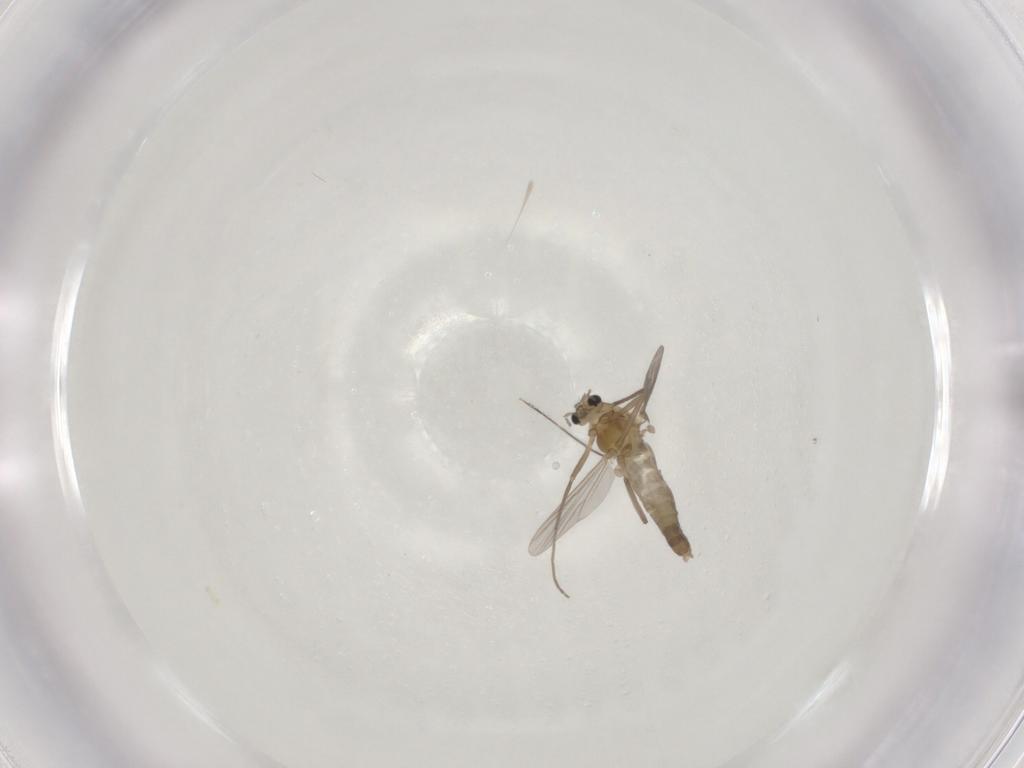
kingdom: Animalia
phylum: Arthropoda
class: Insecta
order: Diptera
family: Chironomidae
